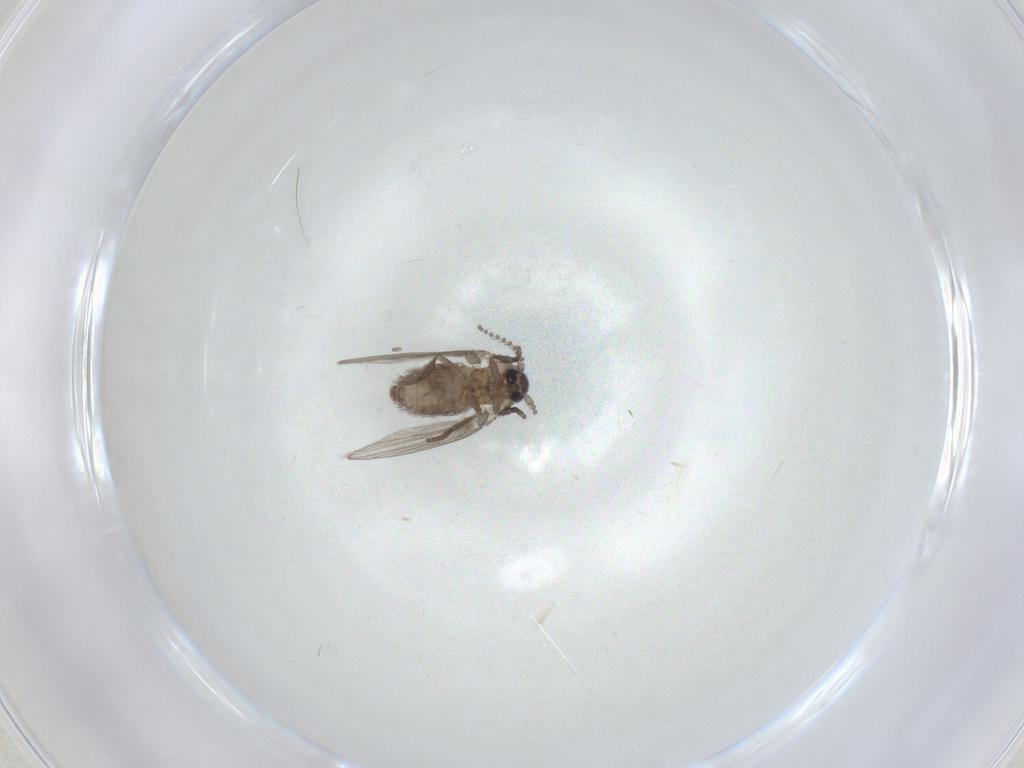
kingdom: Animalia
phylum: Arthropoda
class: Insecta
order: Diptera
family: Psychodidae
